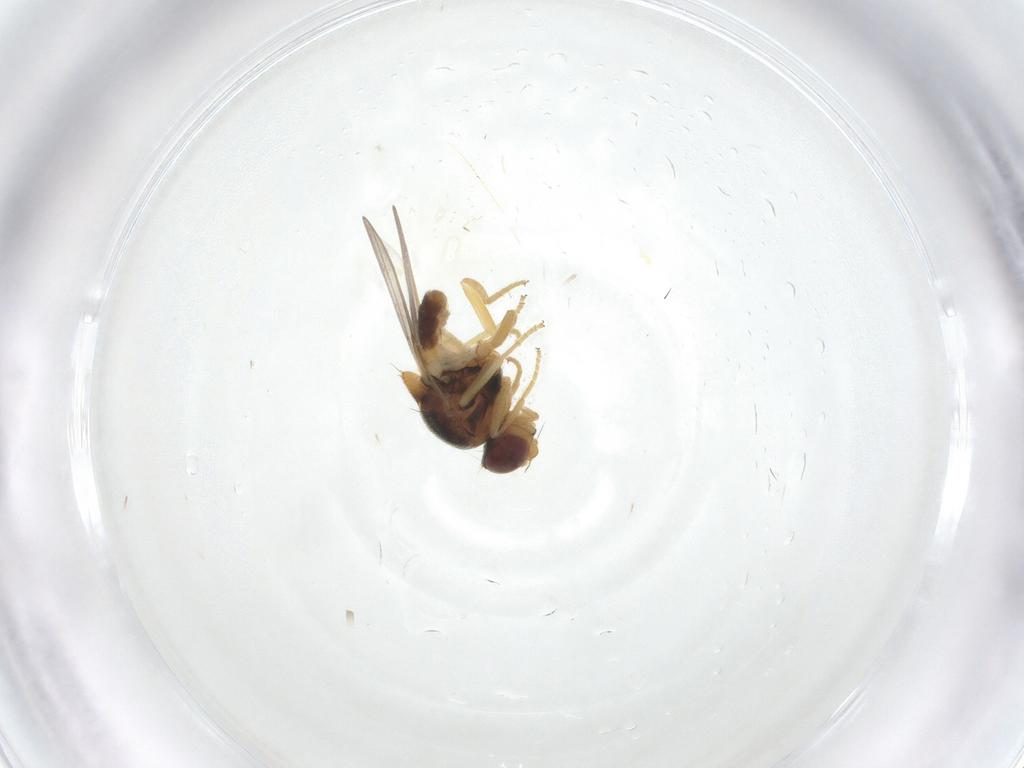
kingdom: Animalia
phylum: Arthropoda
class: Insecta
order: Diptera
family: Chloropidae
